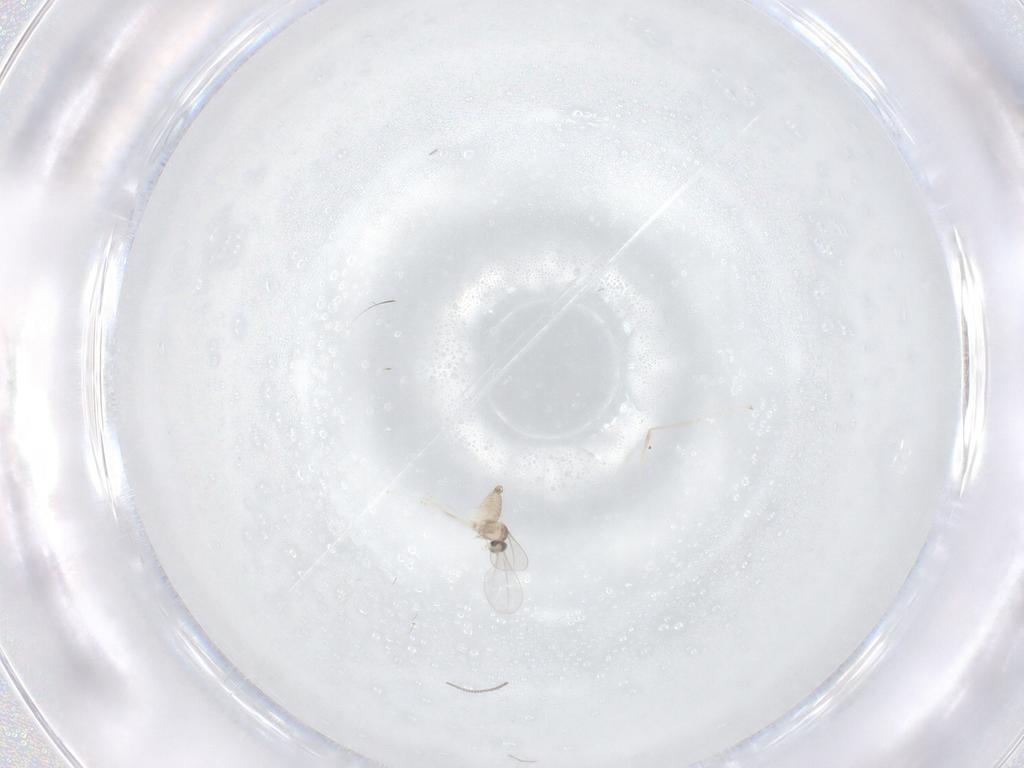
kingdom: Animalia
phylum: Arthropoda
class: Insecta
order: Diptera
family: Cecidomyiidae
